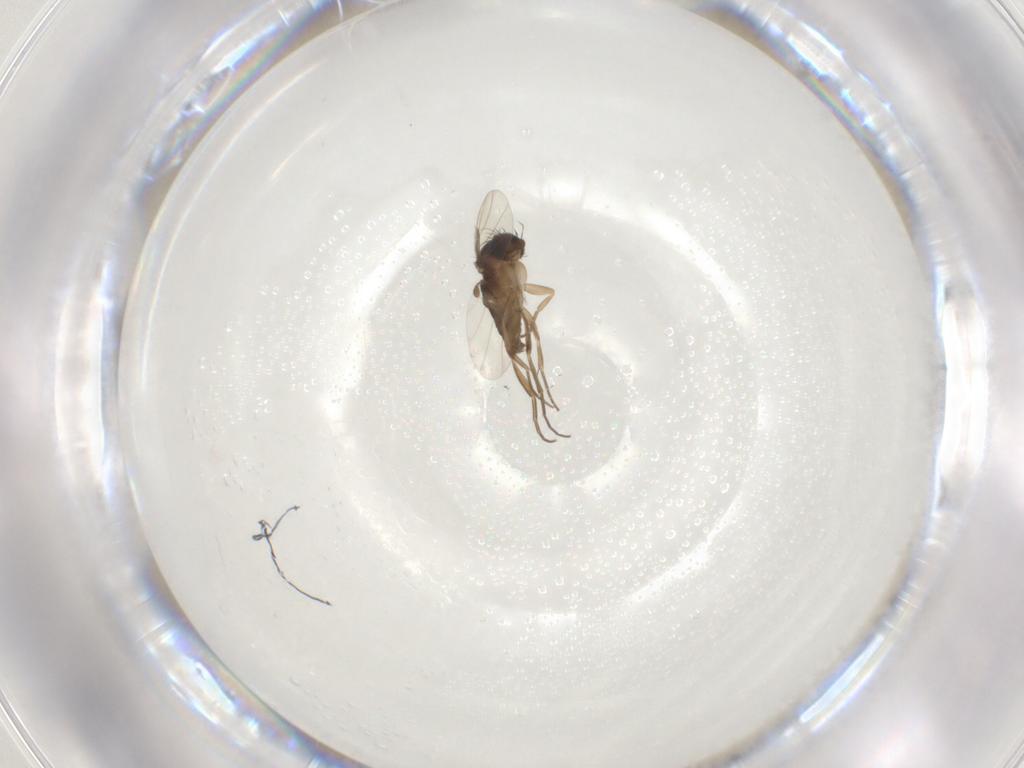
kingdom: Animalia
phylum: Arthropoda
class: Insecta
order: Diptera
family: Phoridae
